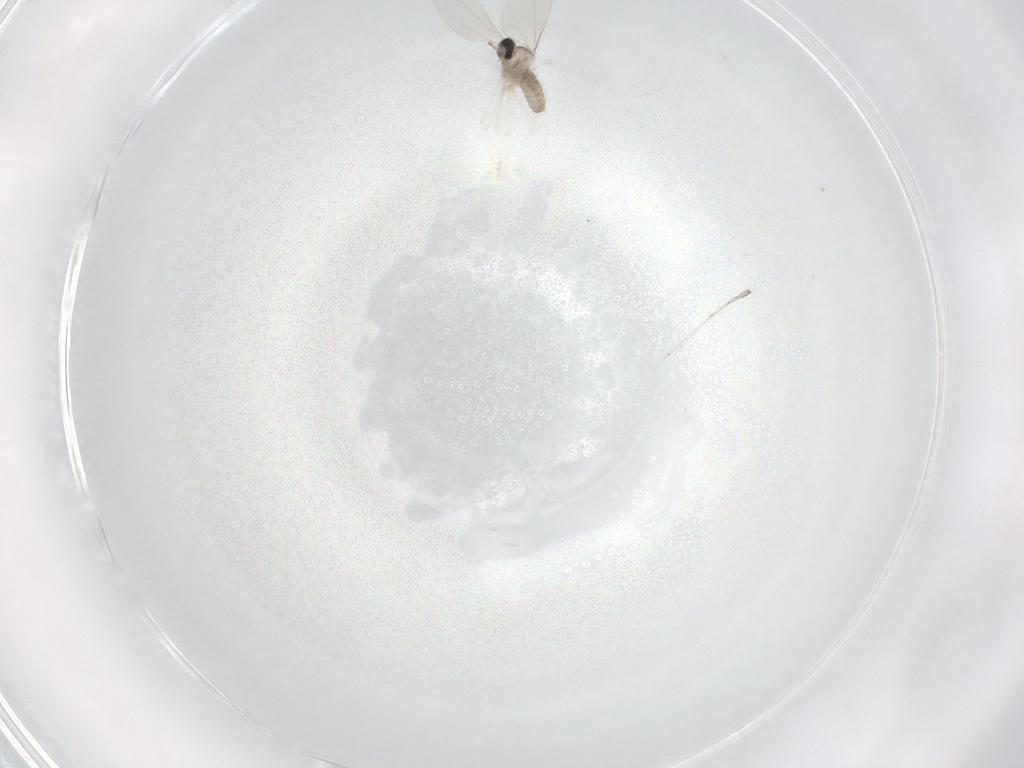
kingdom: Animalia
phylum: Arthropoda
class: Insecta
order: Diptera
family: Cecidomyiidae
